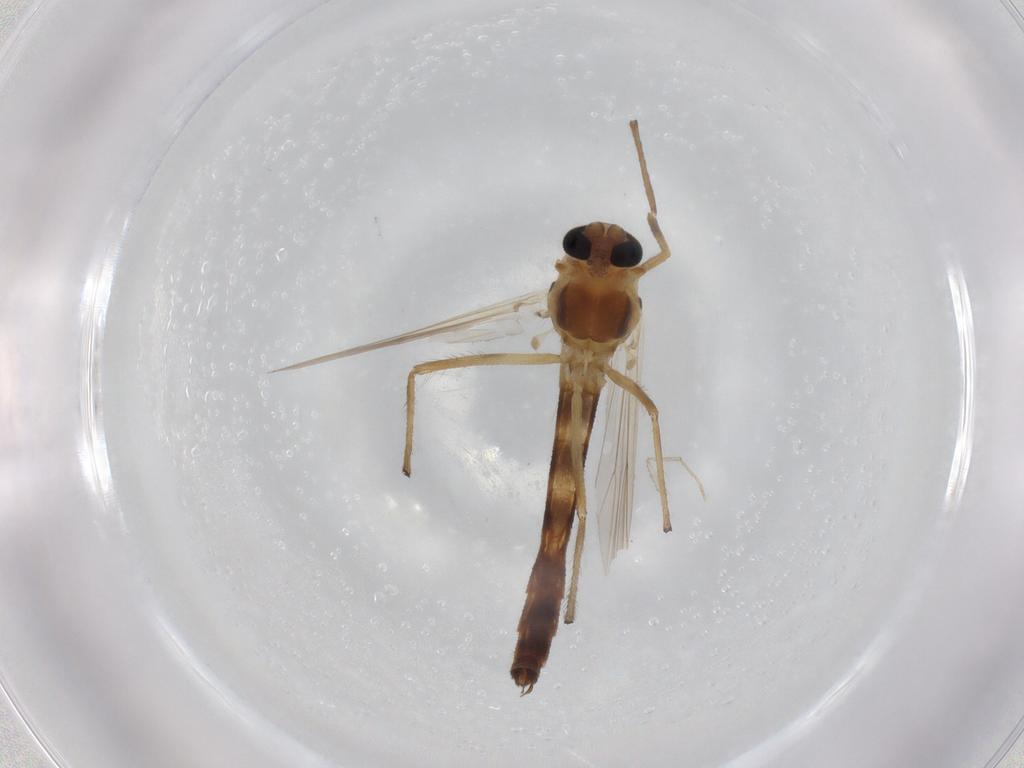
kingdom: Animalia
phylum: Arthropoda
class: Insecta
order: Diptera
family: Chironomidae
